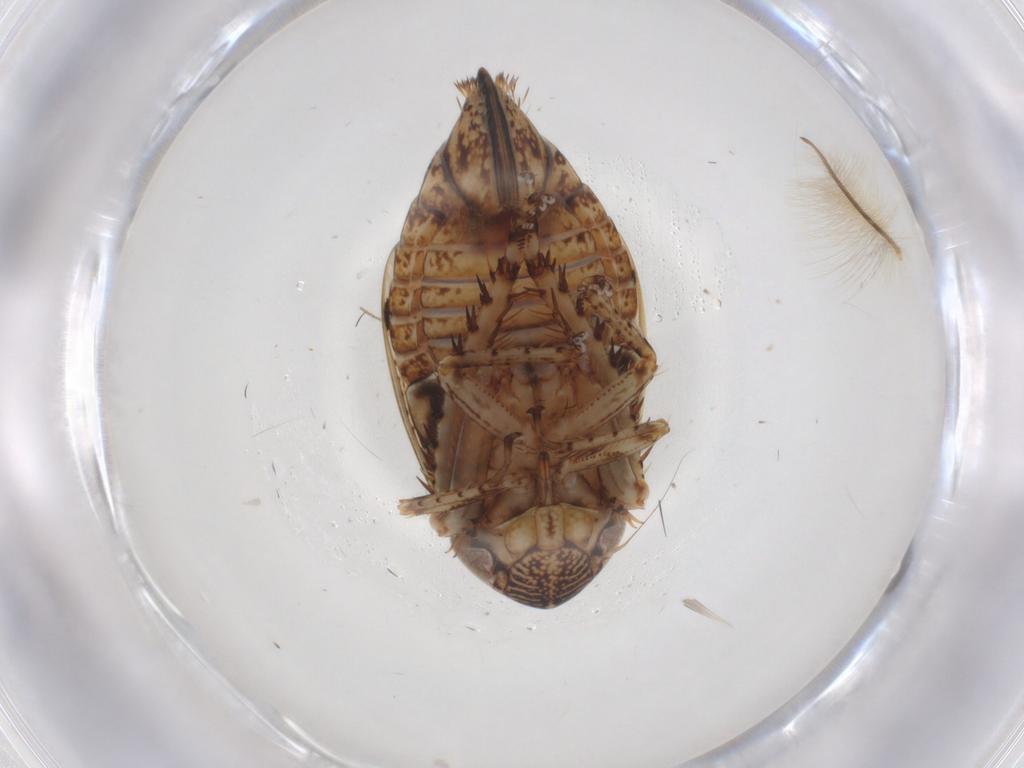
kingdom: Animalia
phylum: Arthropoda
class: Insecta
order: Hemiptera
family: Cicadellidae
